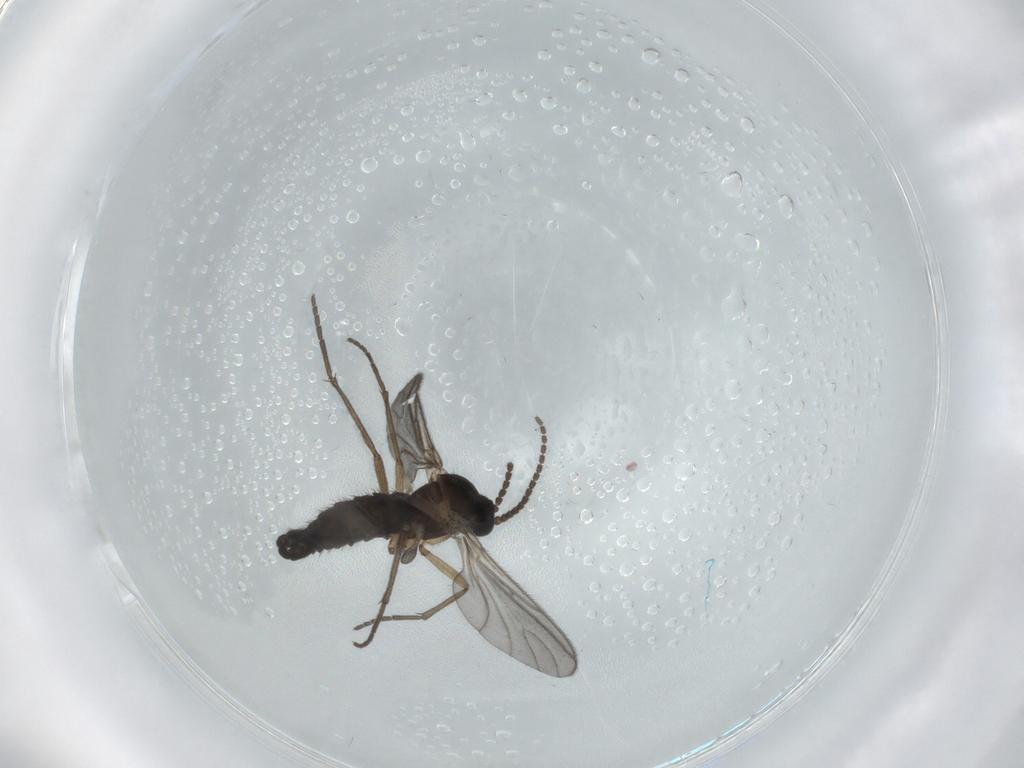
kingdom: Animalia
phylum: Arthropoda
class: Insecta
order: Diptera
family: Sciaridae
